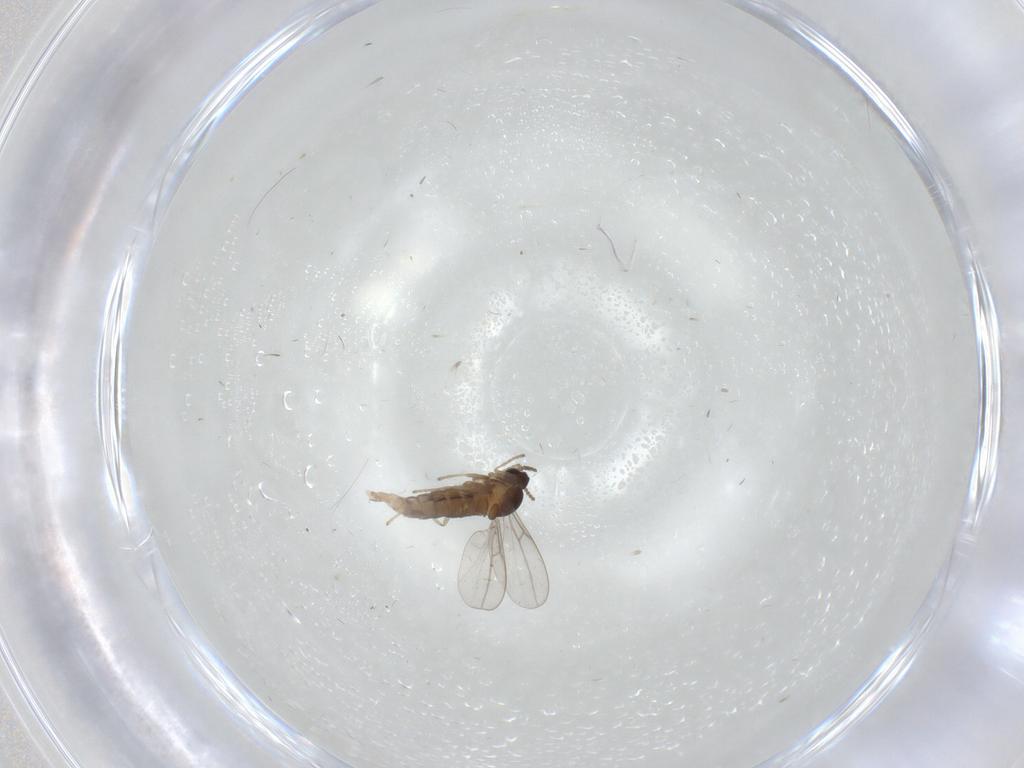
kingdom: Animalia
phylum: Arthropoda
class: Insecta
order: Diptera
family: Cecidomyiidae
